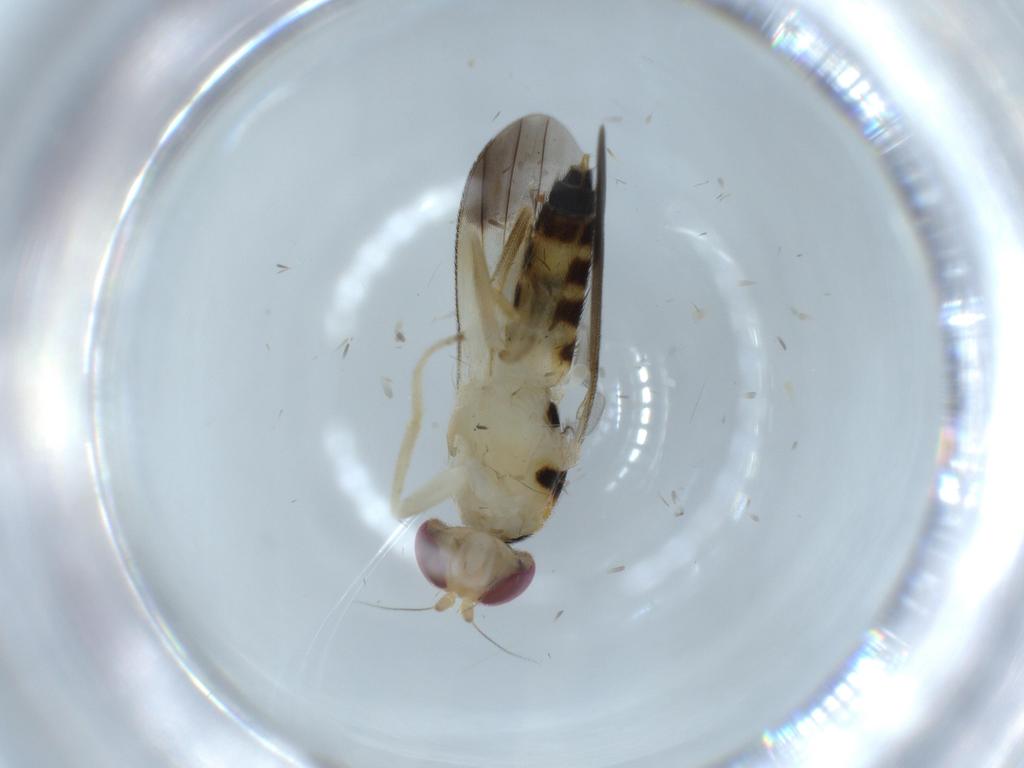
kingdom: Animalia
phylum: Arthropoda
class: Insecta
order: Diptera
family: Clusiidae
